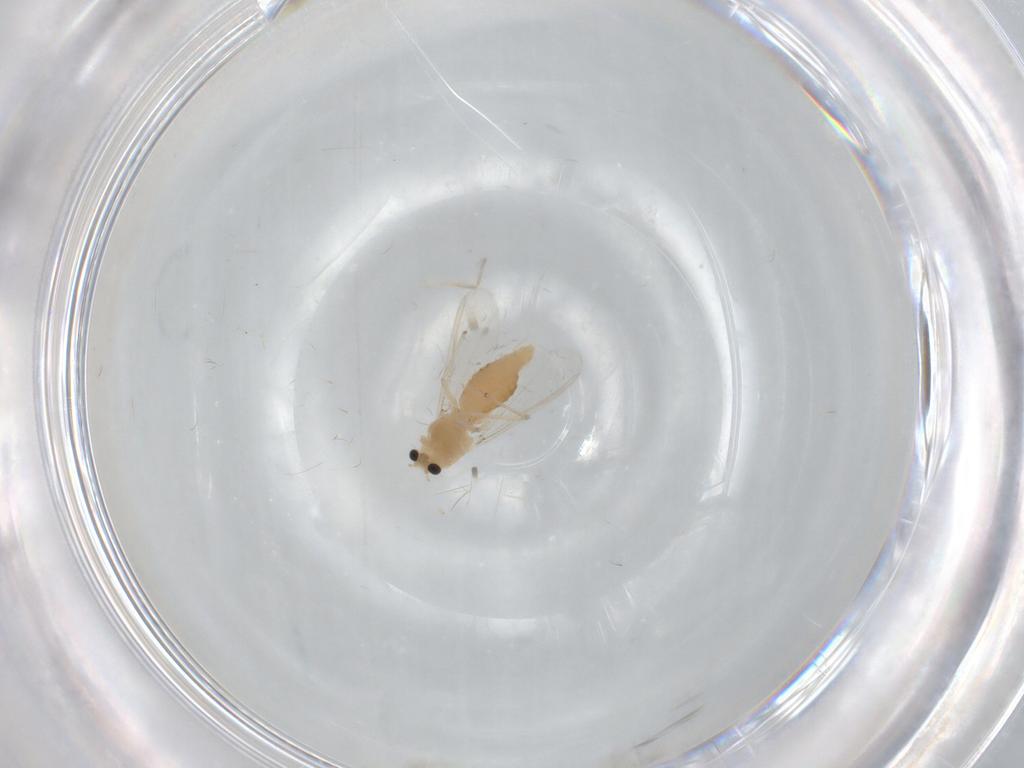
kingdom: Animalia
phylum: Arthropoda
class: Insecta
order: Diptera
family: Chironomidae
